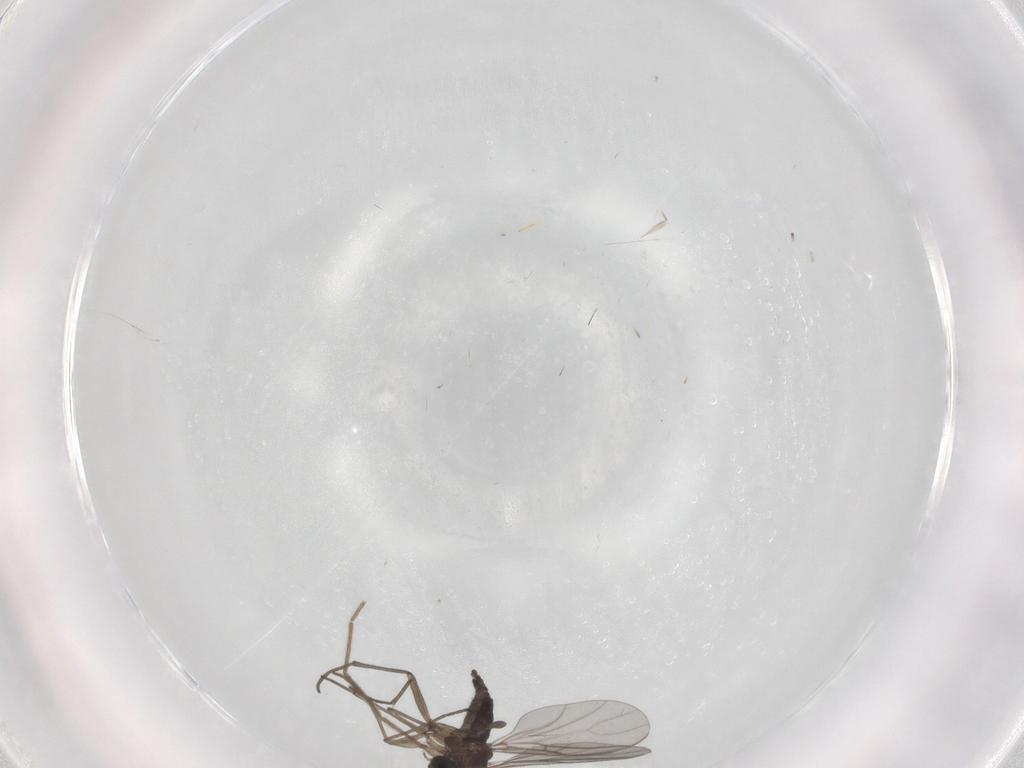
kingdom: Animalia
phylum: Arthropoda
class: Insecta
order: Diptera
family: Sciaridae
